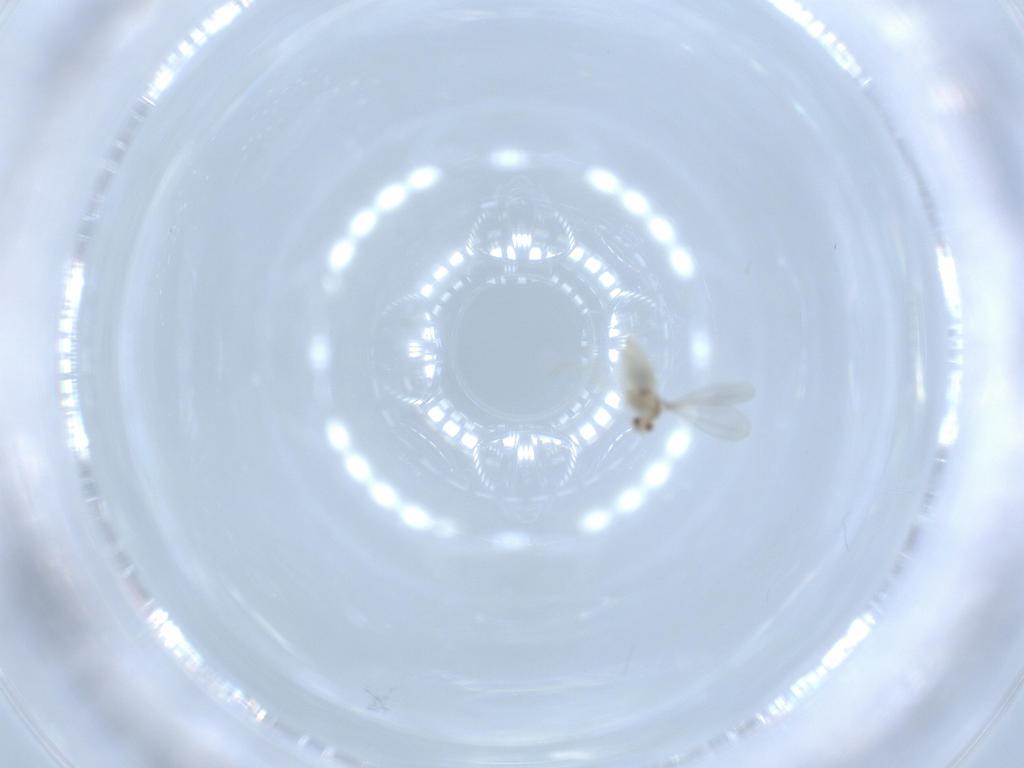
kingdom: Animalia
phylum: Arthropoda
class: Insecta
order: Diptera
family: Cecidomyiidae
